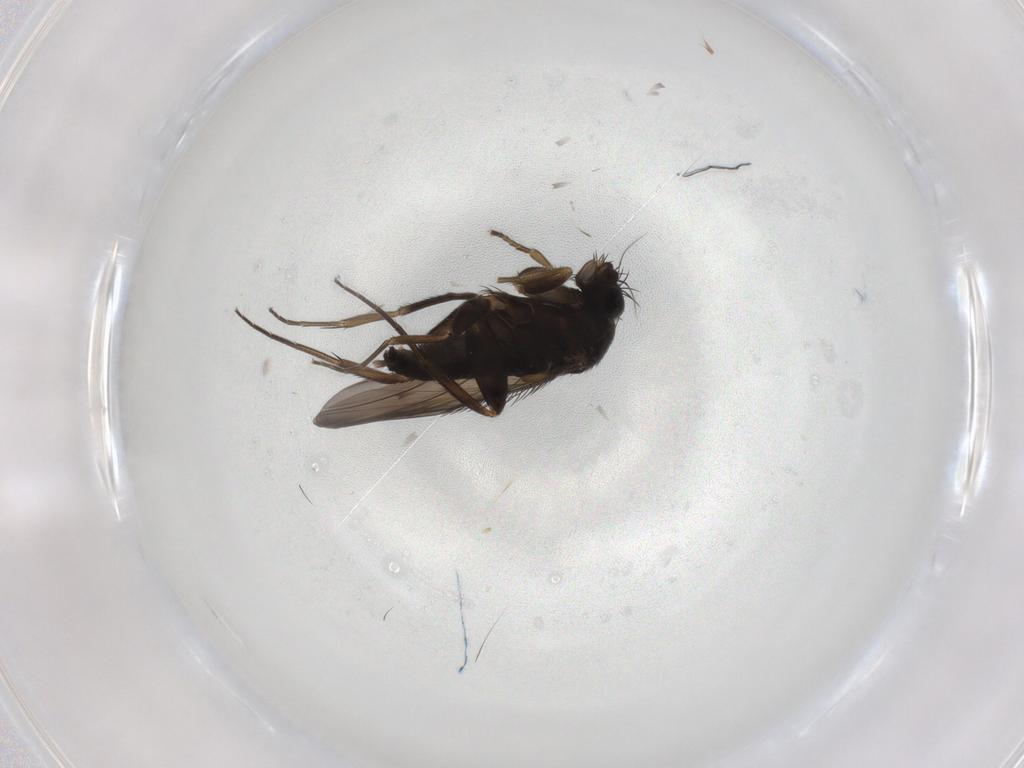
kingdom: Animalia
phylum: Arthropoda
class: Insecta
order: Diptera
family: Phoridae
